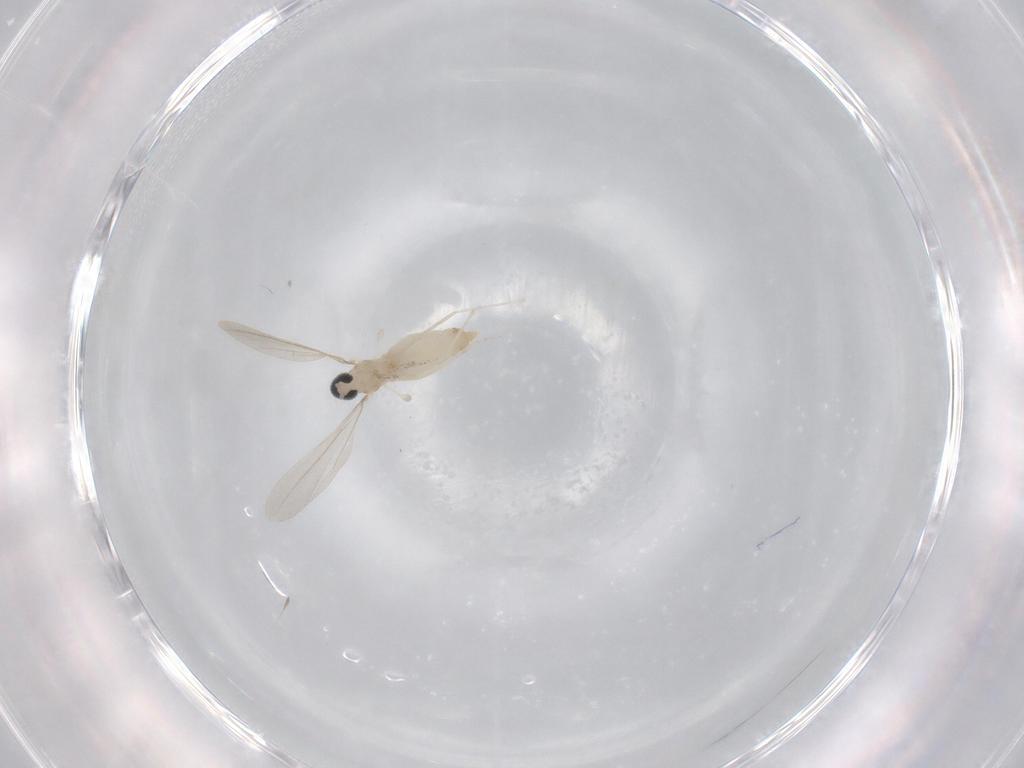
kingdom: Animalia
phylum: Arthropoda
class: Insecta
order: Diptera
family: Cecidomyiidae
